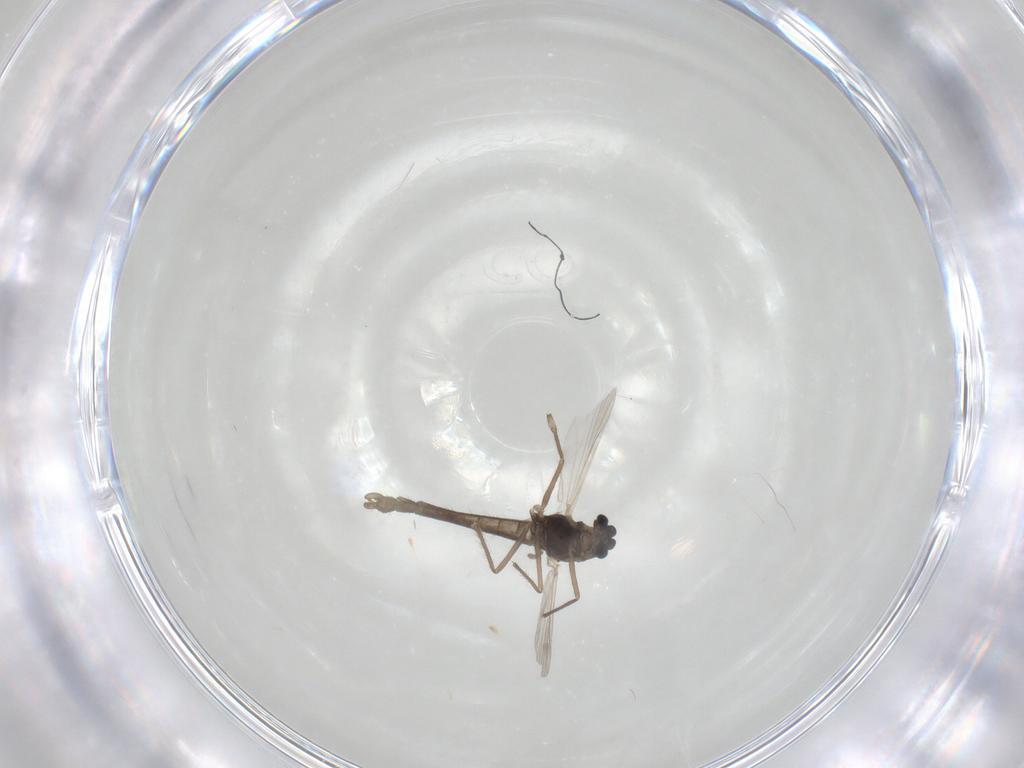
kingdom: Animalia
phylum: Arthropoda
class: Insecta
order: Diptera
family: Chironomidae
